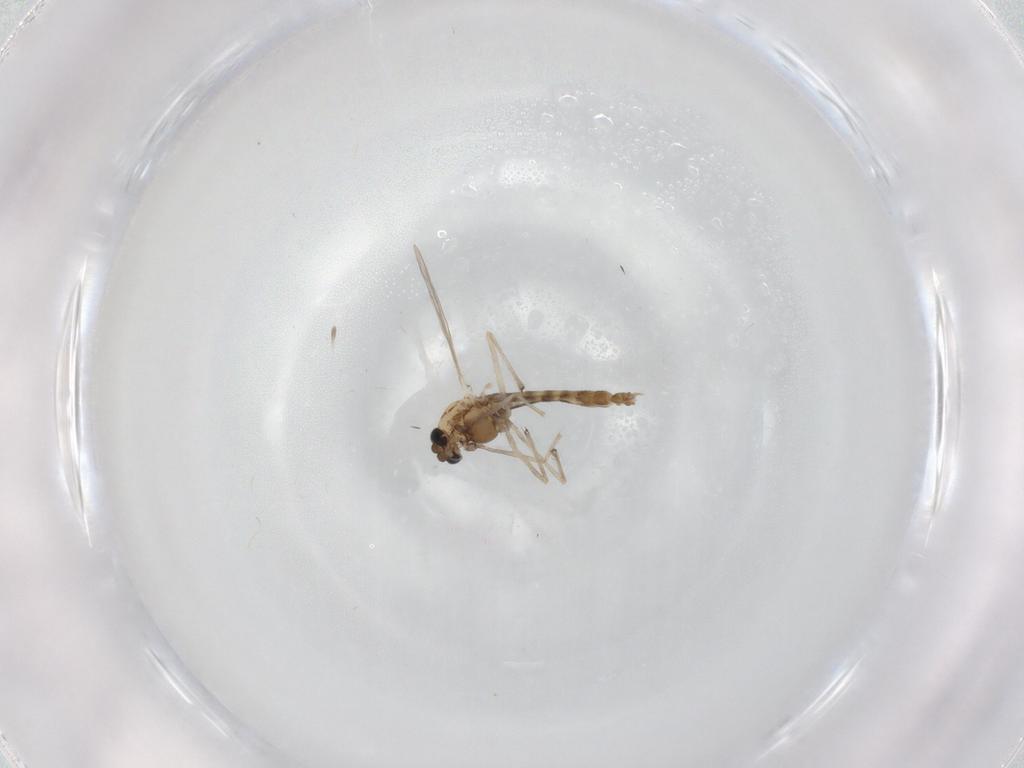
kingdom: Animalia
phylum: Arthropoda
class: Insecta
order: Diptera
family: Chironomidae
